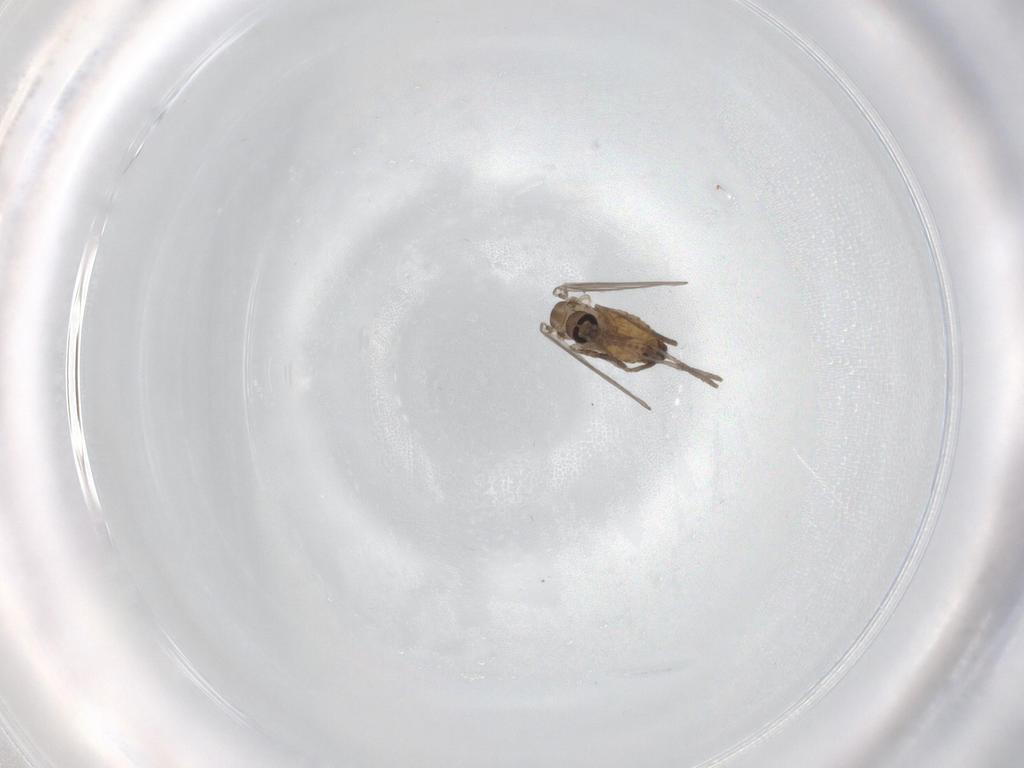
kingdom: Animalia
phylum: Arthropoda
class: Insecta
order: Diptera
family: Psychodidae
